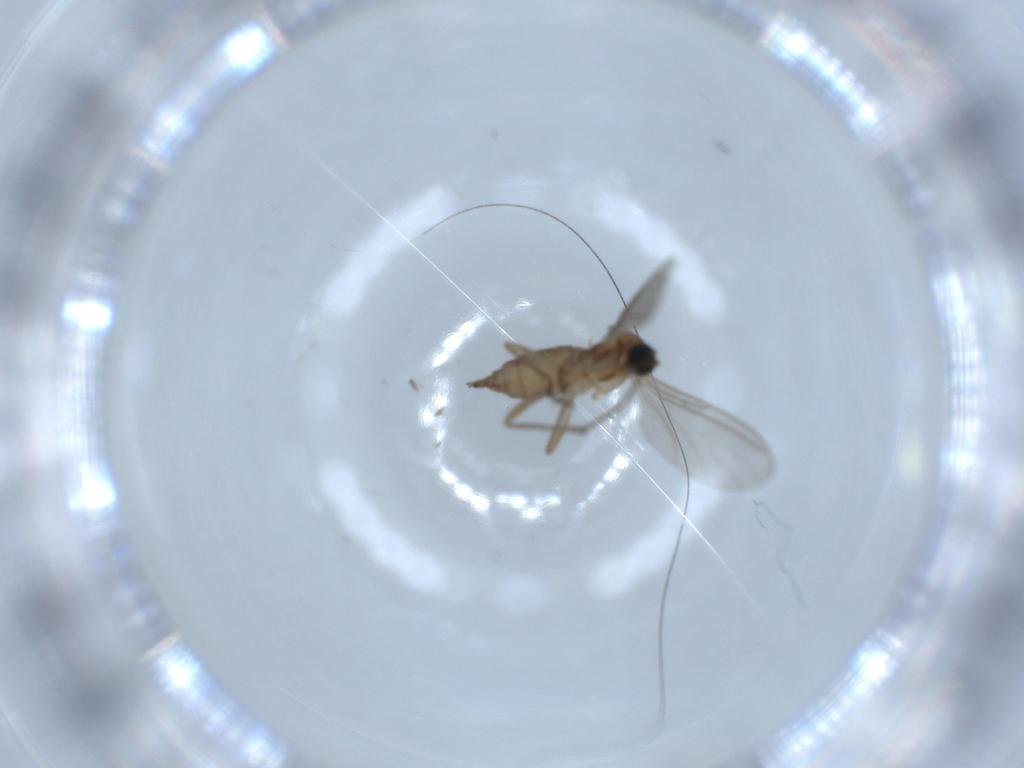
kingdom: Animalia
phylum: Arthropoda
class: Insecta
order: Diptera
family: Sciaridae
